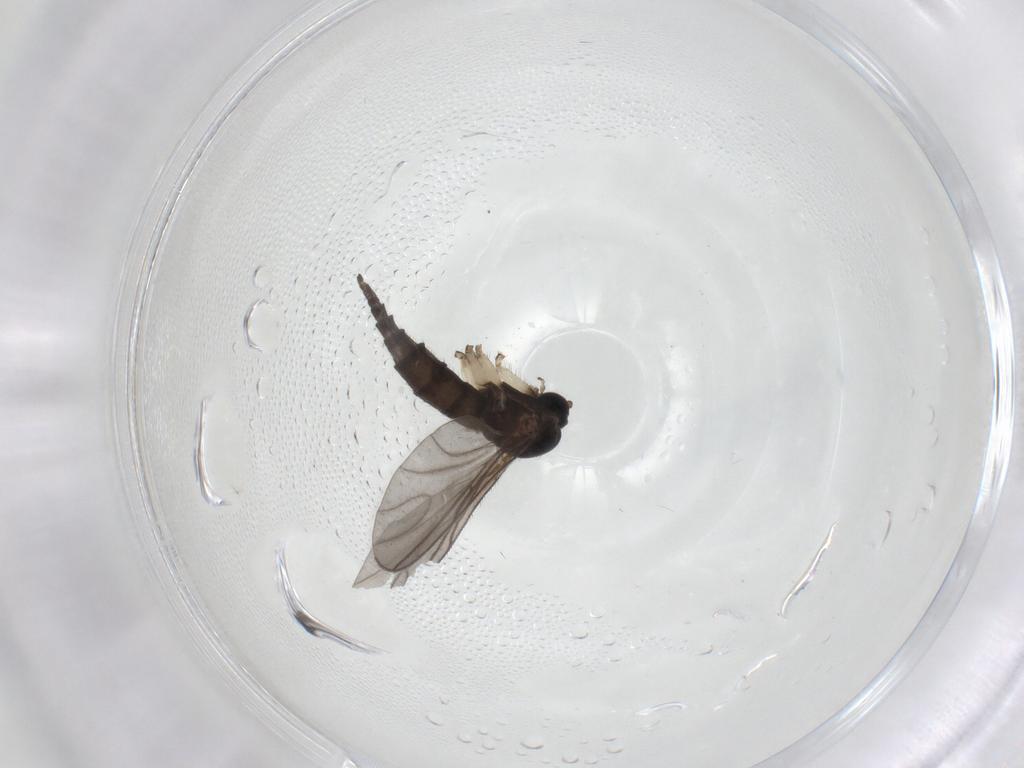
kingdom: Animalia
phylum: Arthropoda
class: Insecta
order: Diptera
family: Sciaridae
